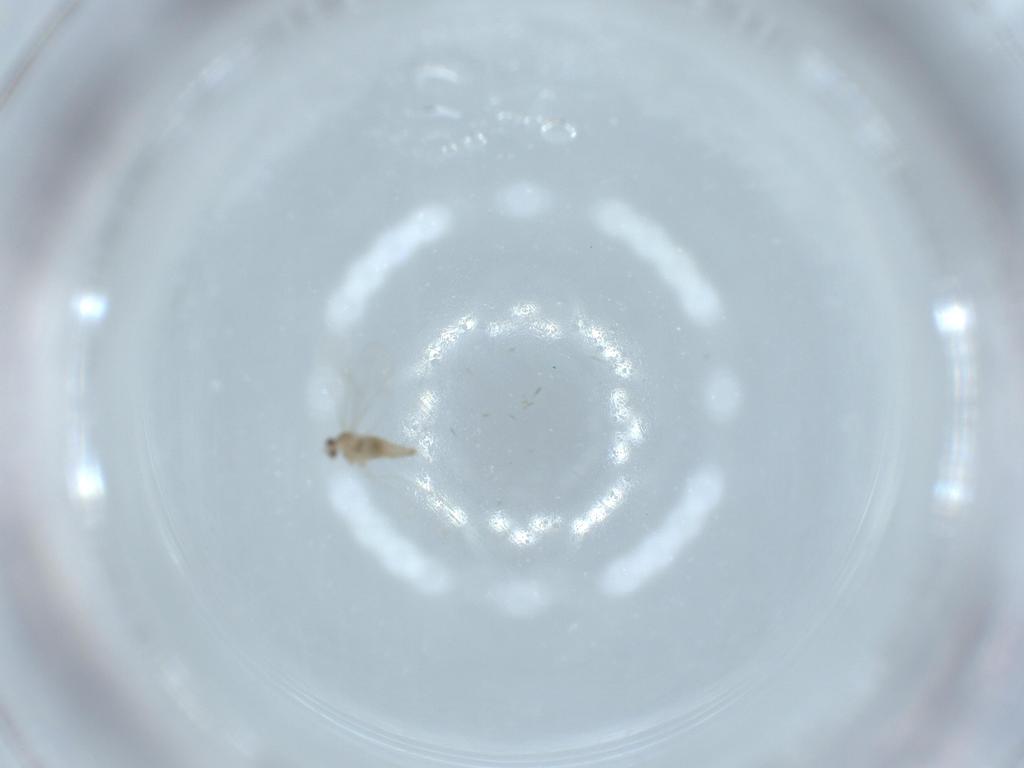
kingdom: Animalia
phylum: Arthropoda
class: Insecta
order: Diptera
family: Cecidomyiidae
